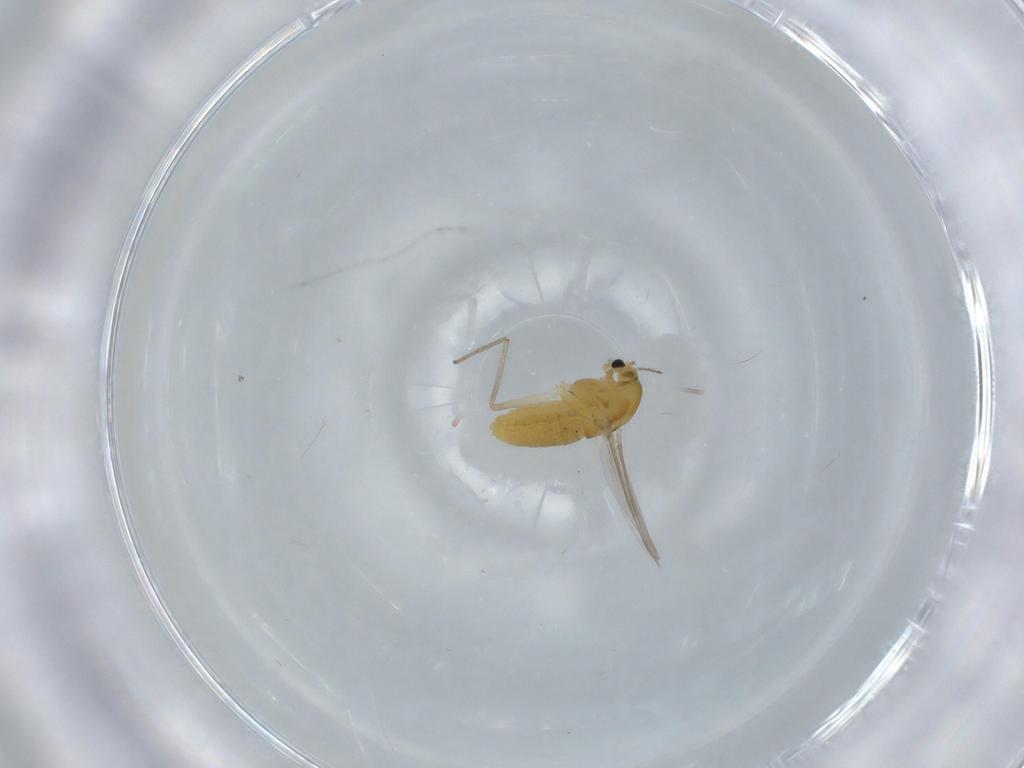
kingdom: Animalia
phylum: Arthropoda
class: Insecta
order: Diptera
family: Chironomidae
